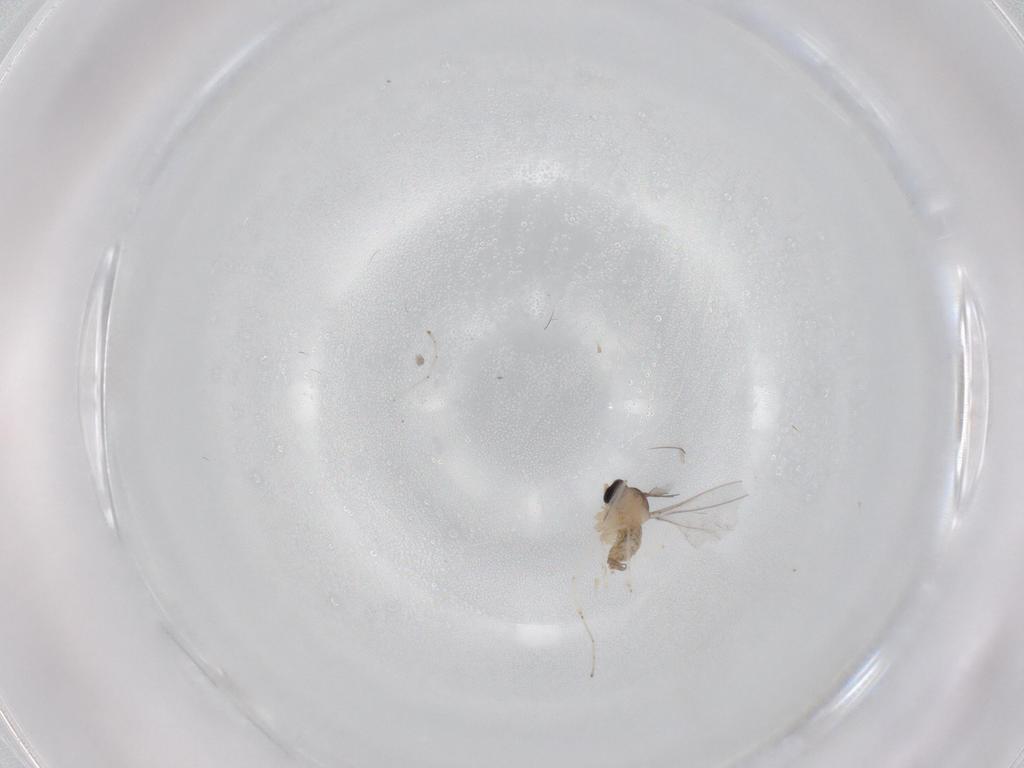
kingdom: Animalia
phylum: Arthropoda
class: Insecta
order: Diptera
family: Cecidomyiidae
